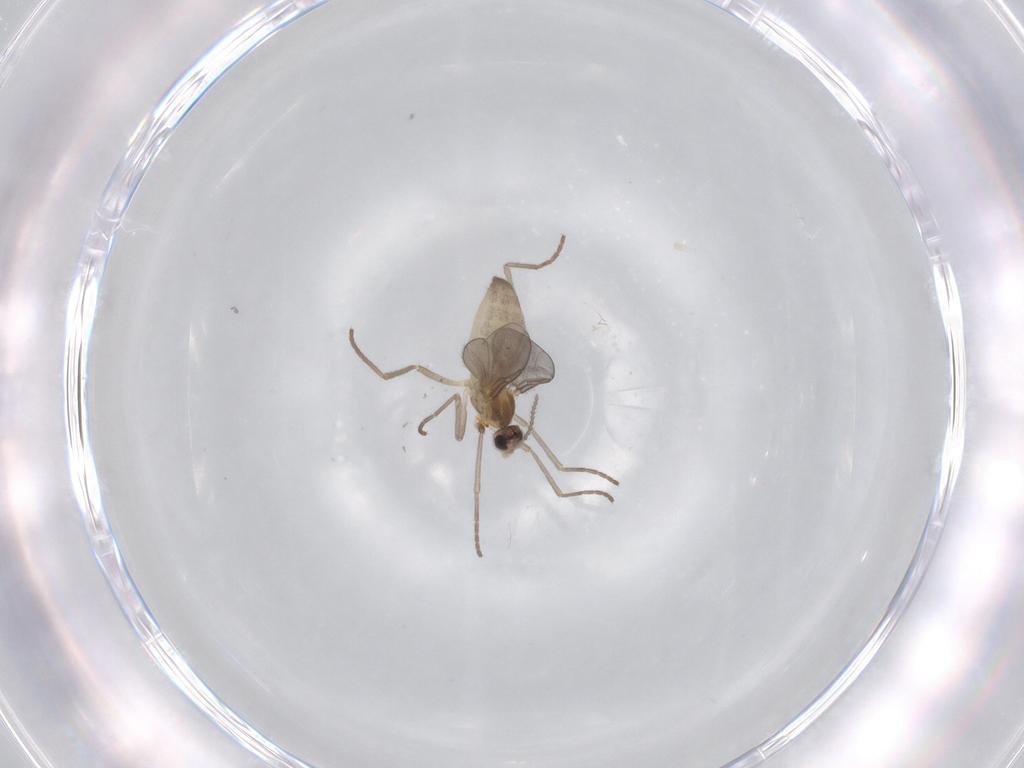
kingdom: Animalia
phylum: Arthropoda
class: Insecta
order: Diptera
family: Cecidomyiidae
